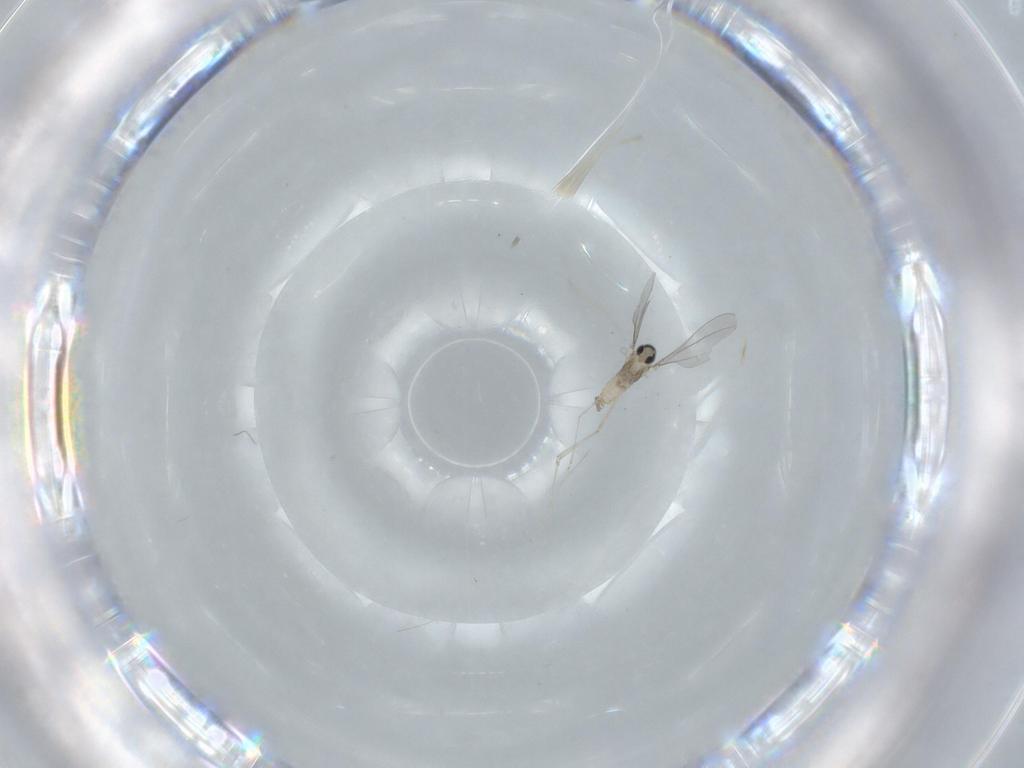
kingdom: Animalia
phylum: Arthropoda
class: Insecta
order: Diptera
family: Cecidomyiidae
